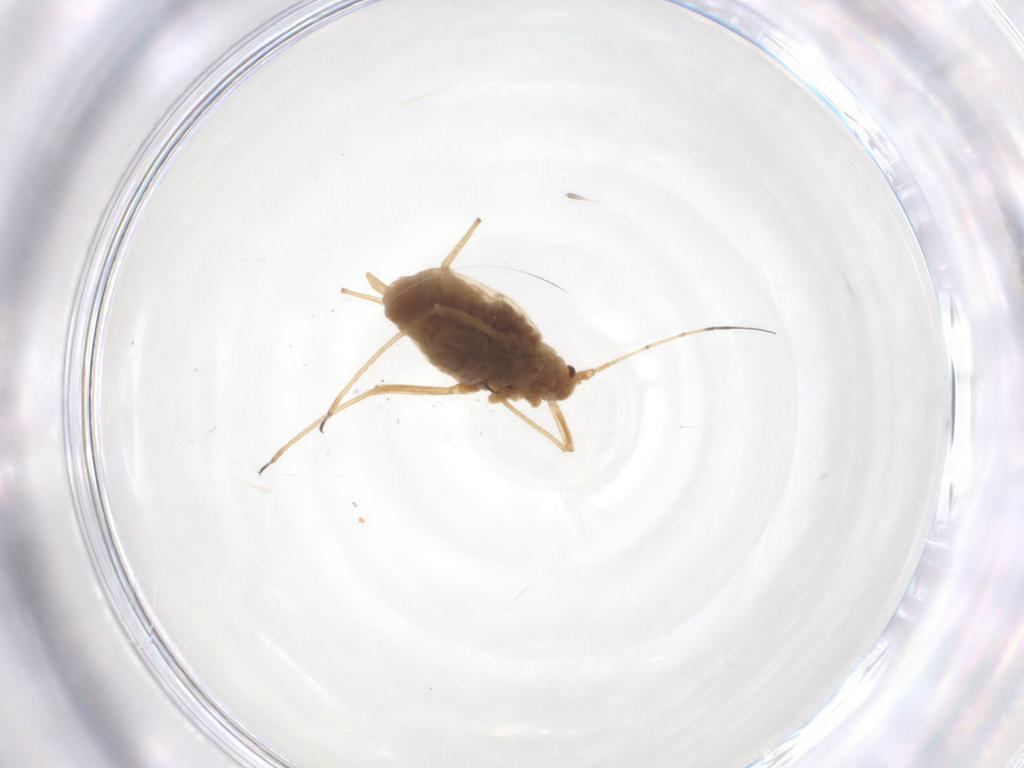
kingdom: Animalia
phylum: Arthropoda
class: Insecta
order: Hemiptera
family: Aphididae
